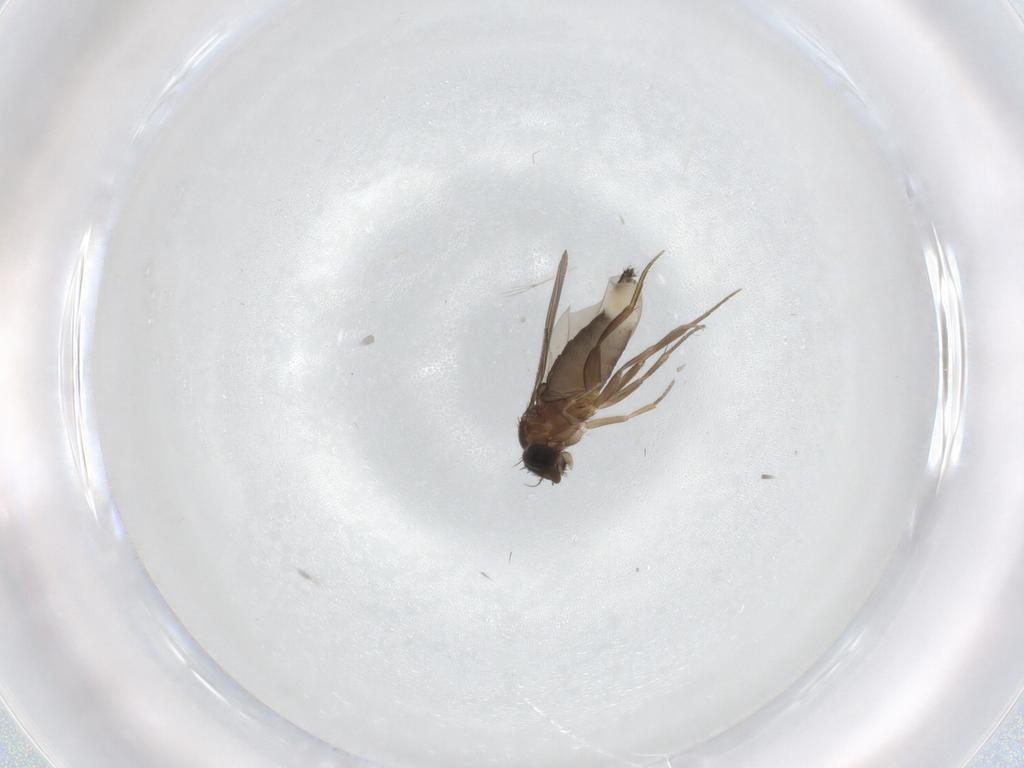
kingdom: Animalia
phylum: Arthropoda
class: Insecta
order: Diptera
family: Phoridae
